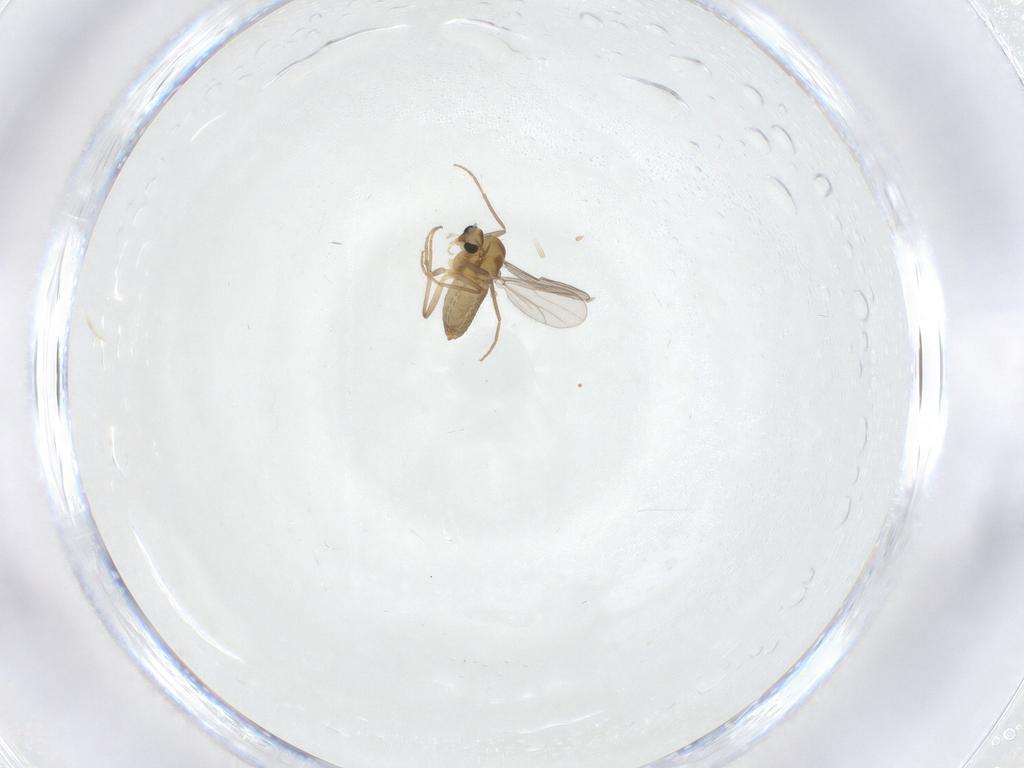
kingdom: Animalia
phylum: Arthropoda
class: Insecta
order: Diptera
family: Chironomidae
